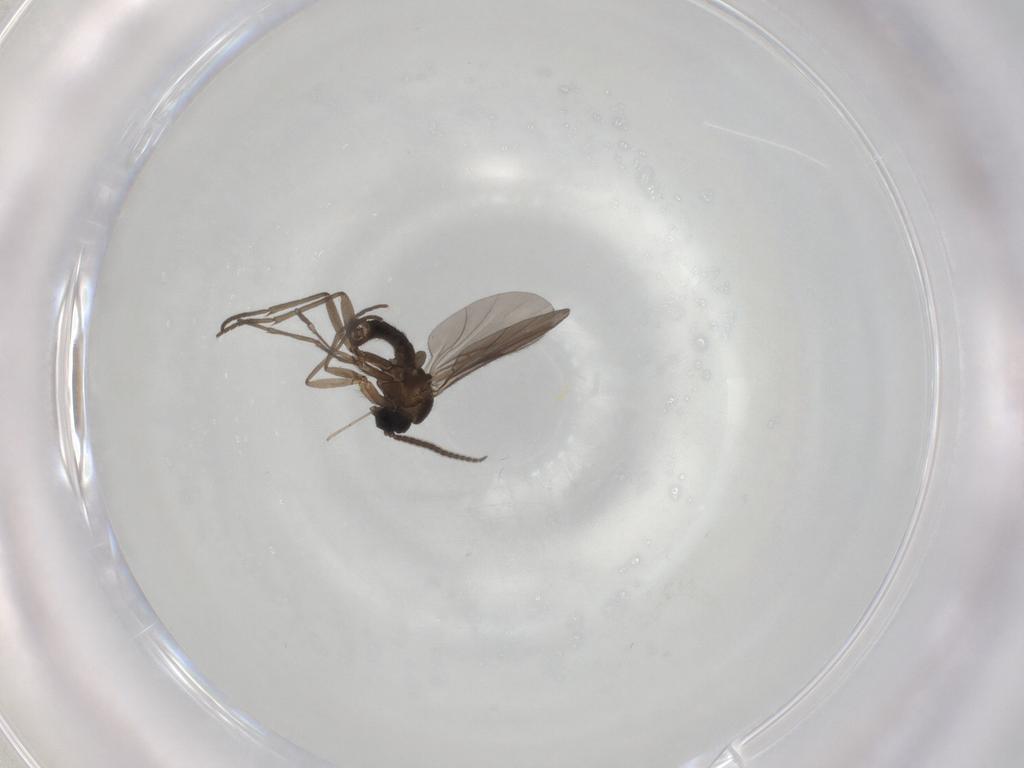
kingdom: Animalia
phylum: Arthropoda
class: Insecta
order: Diptera
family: Sciaridae
